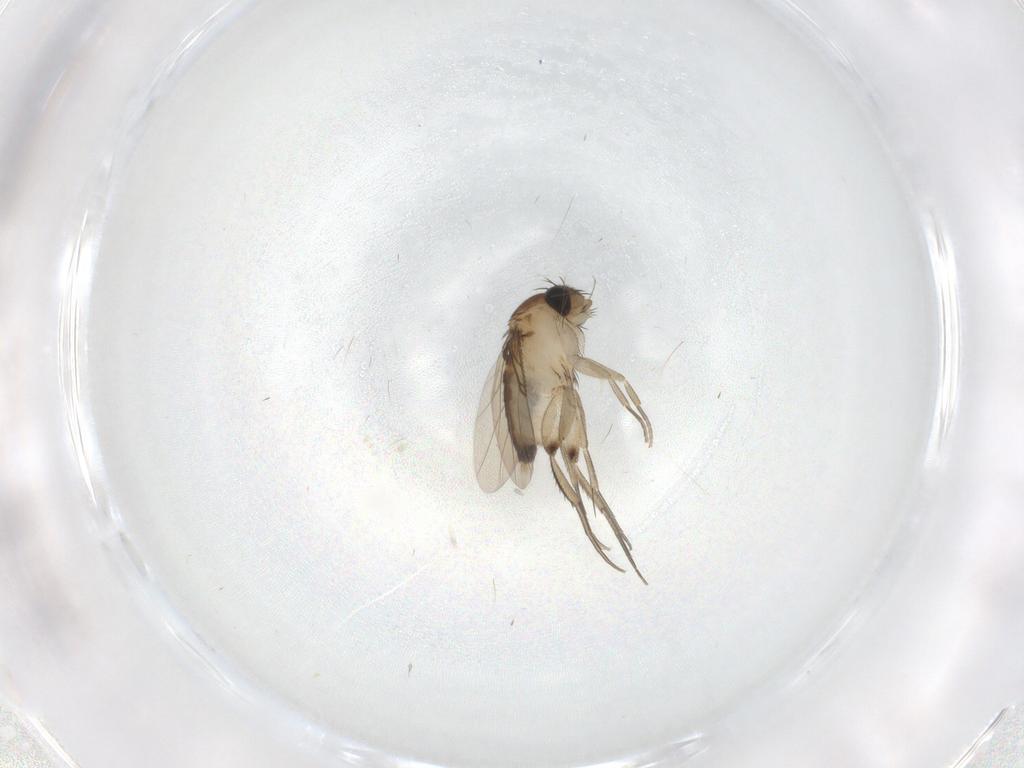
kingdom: Animalia
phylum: Arthropoda
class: Insecta
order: Diptera
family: Phoridae
